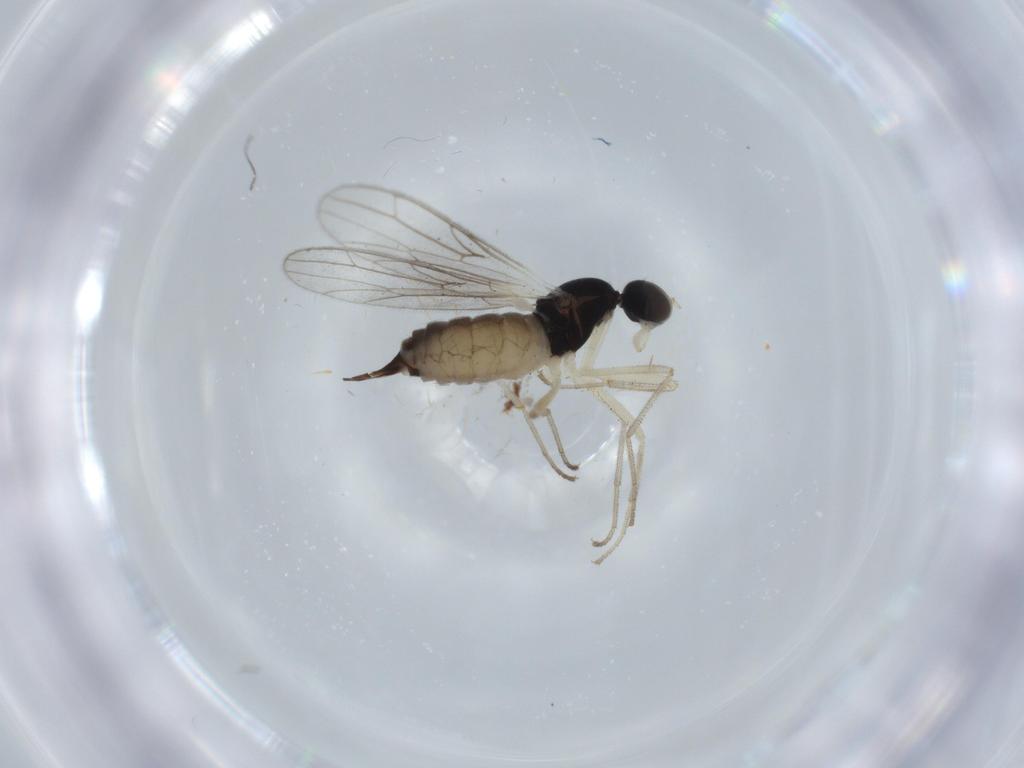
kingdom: Animalia
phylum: Arthropoda
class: Insecta
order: Diptera
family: Empididae
